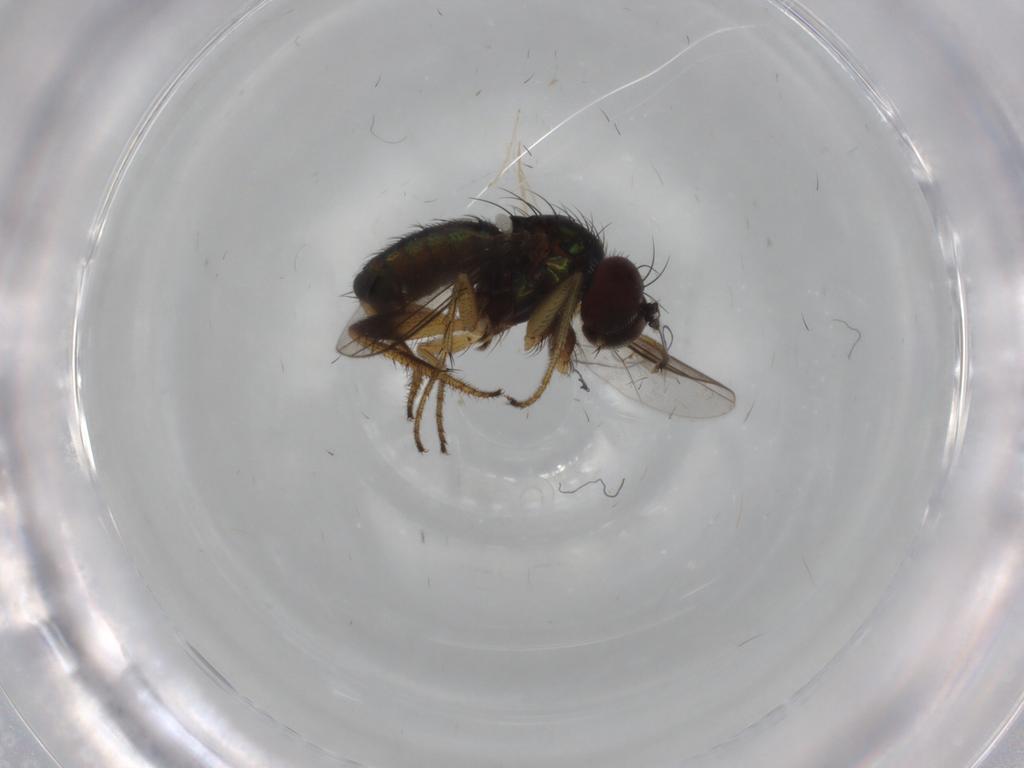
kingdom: Animalia
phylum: Arthropoda
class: Insecta
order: Diptera
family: Dolichopodidae
